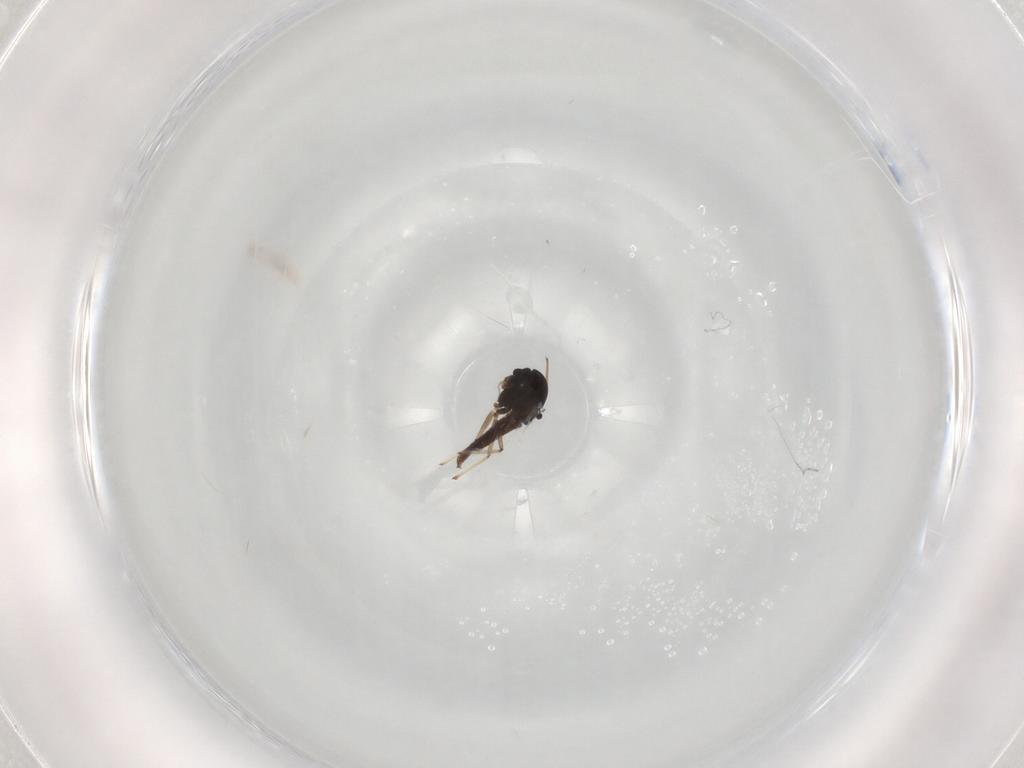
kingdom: Animalia
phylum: Arthropoda
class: Insecta
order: Diptera
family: Chironomidae
